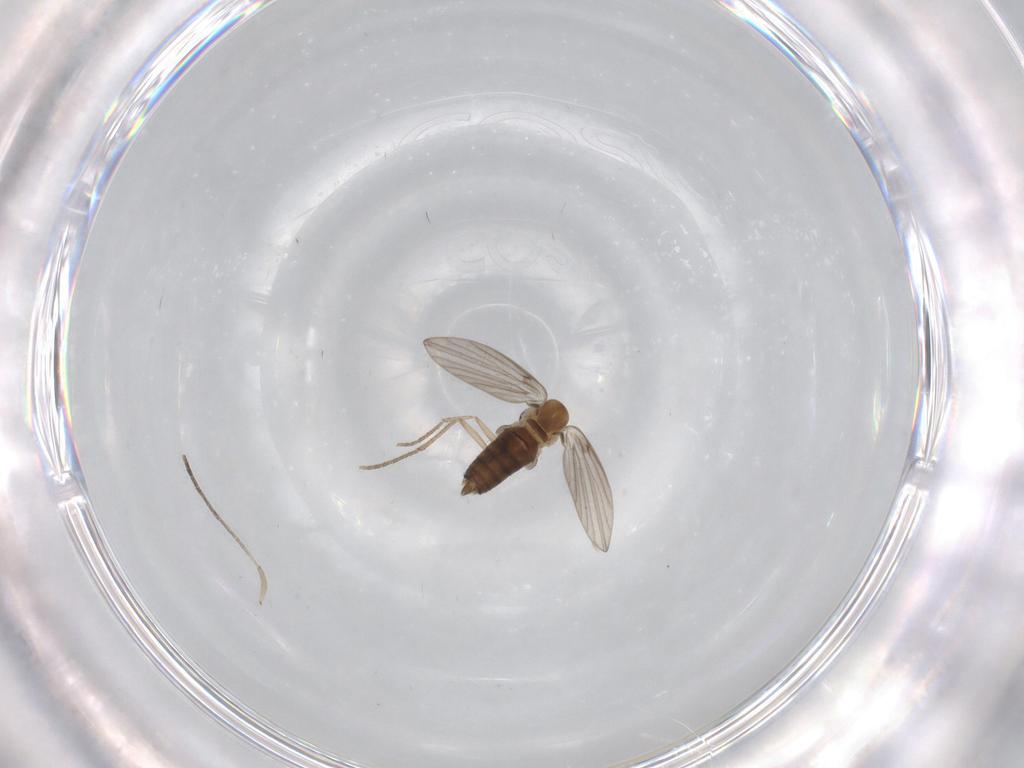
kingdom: Animalia
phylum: Arthropoda
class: Insecta
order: Diptera
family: Psychodidae
